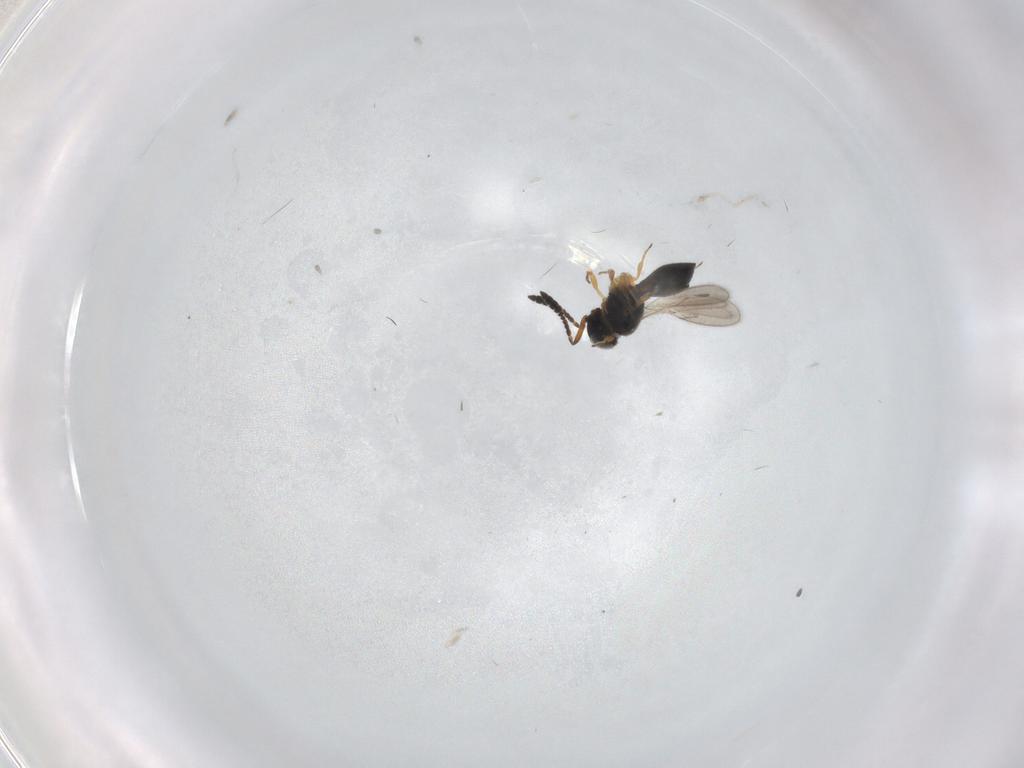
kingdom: Animalia
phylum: Arthropoda
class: Insecta
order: Hymenoptera
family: Scelionidae
